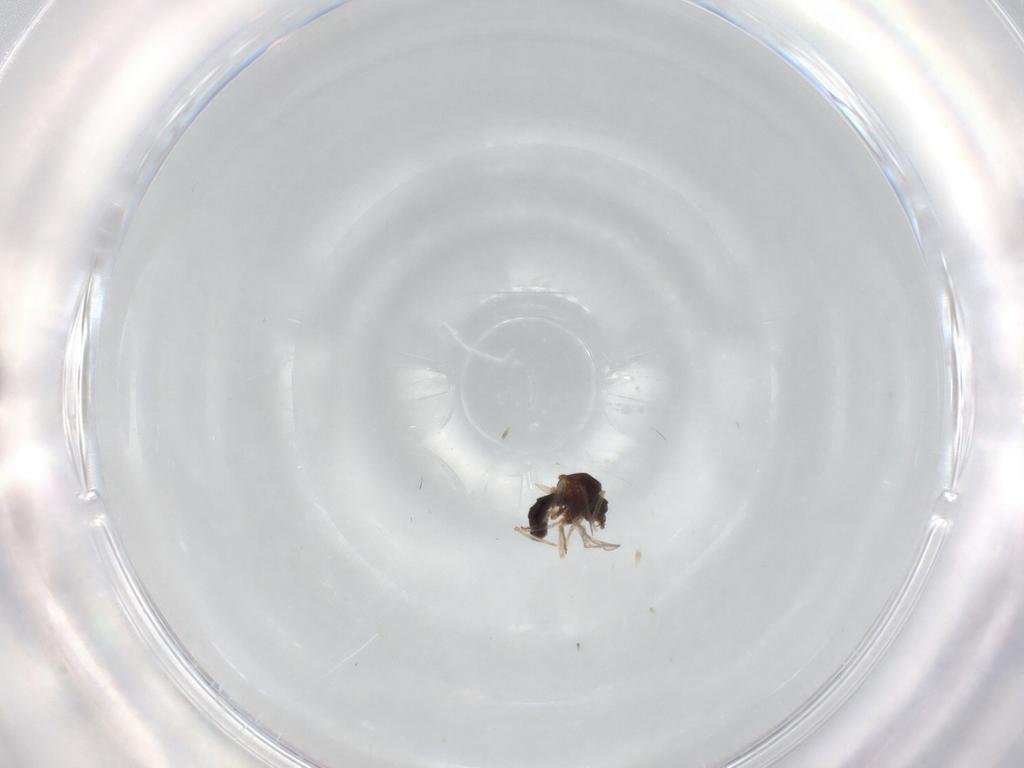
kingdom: Animalia
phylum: Arthropoda
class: Insecta
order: Diptera
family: Ceratopogonidae
